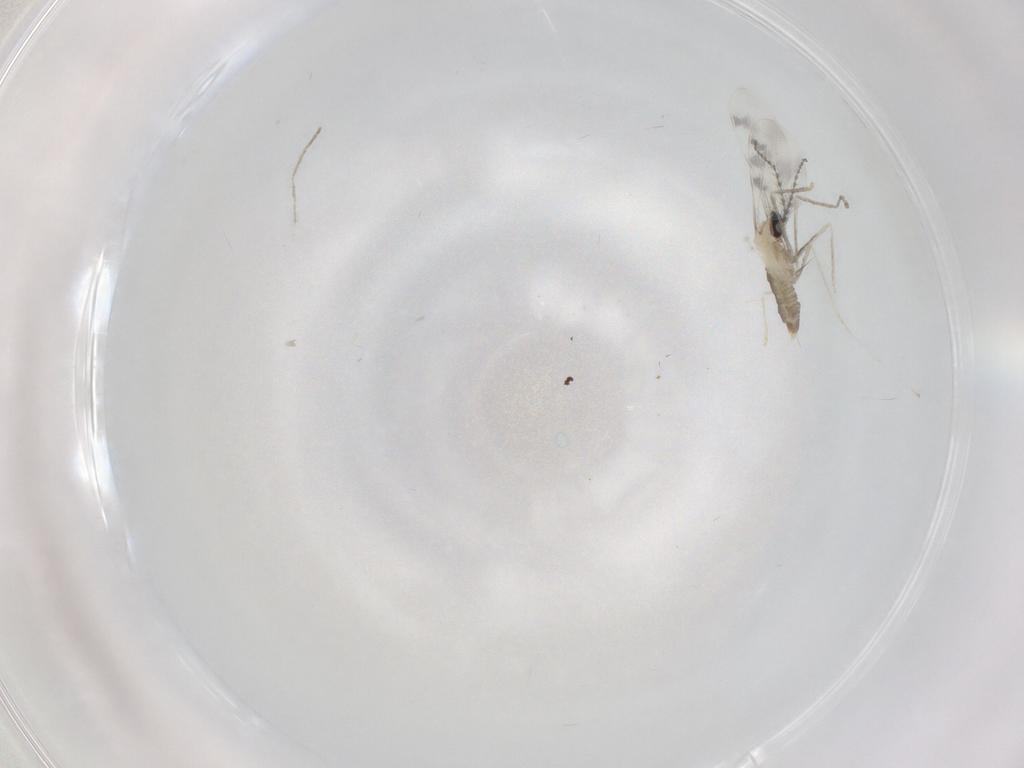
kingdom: Animalia
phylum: Arthropoda
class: Insecta
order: Diptera
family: Cecidomyiidae
